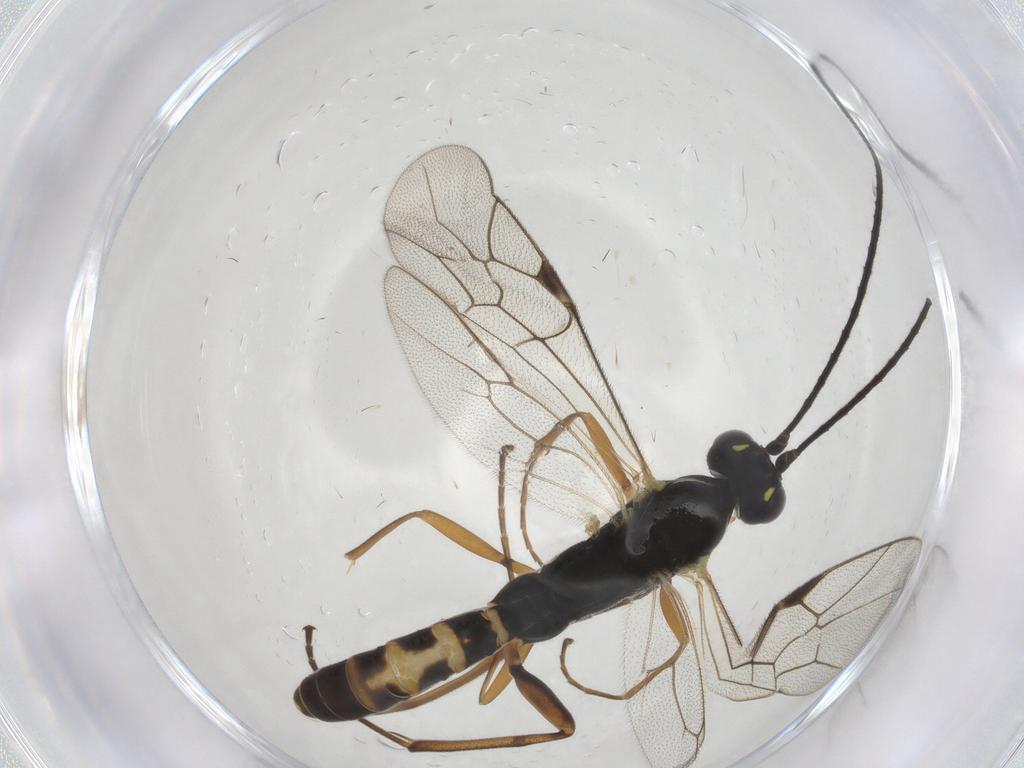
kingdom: Animalia
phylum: Arthropoda
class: Insecta
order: Hymenoptera
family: Ichneumonidae
